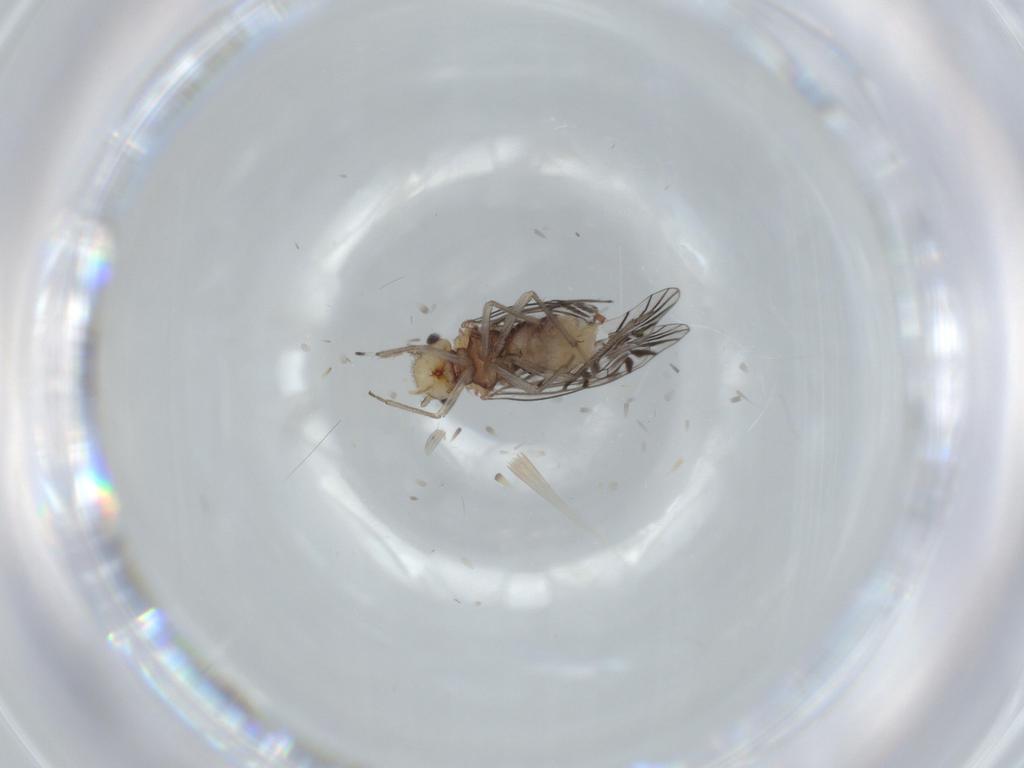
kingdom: Animalia
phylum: Arthropoda
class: Insecta
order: Psocodea
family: Amphipsocidae
